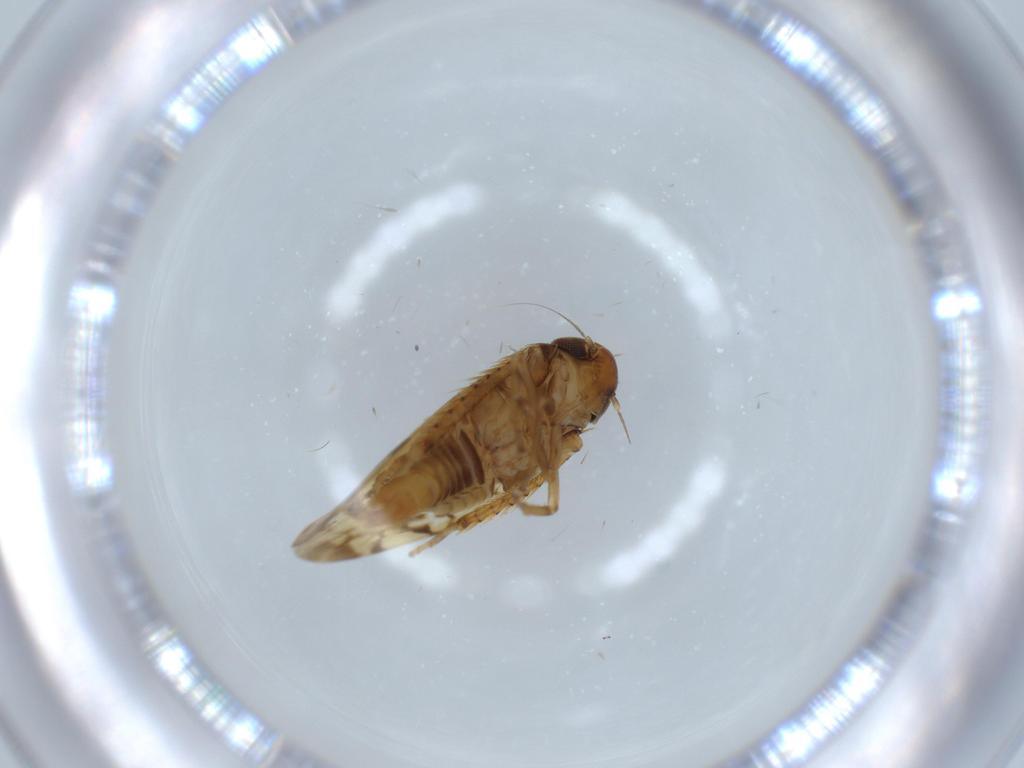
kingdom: Animalia
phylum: Arthropoda
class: Insecta
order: Hemiptera
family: Cicadellidae
